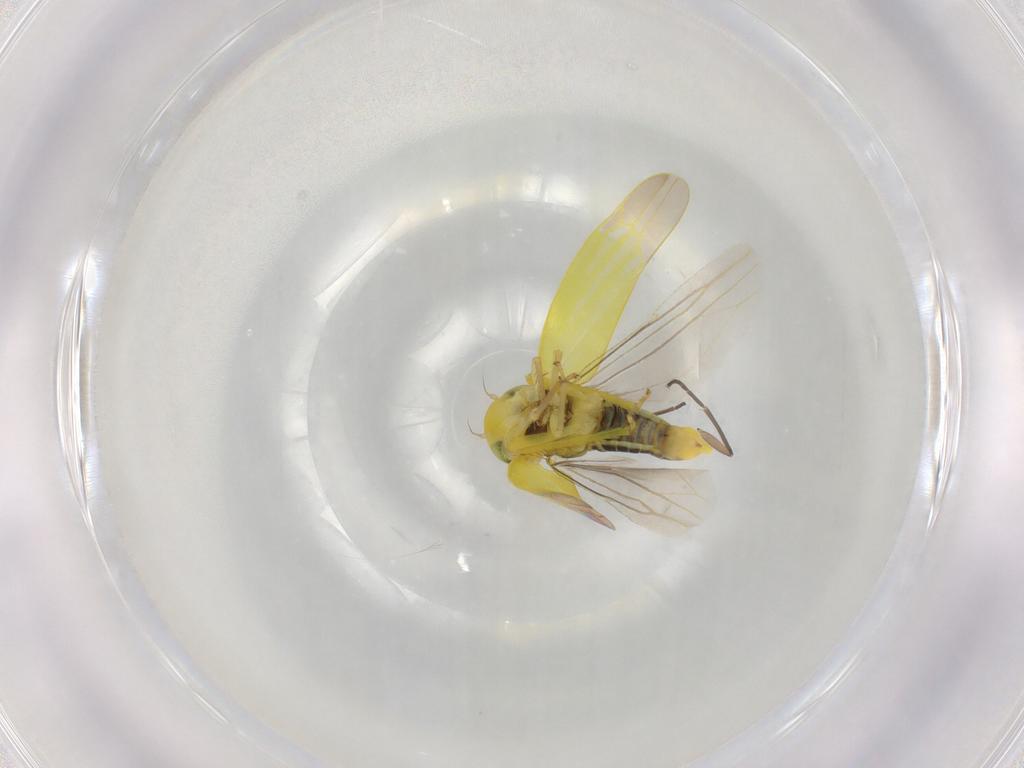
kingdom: Animalia
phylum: Arthropoda
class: Insecta
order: Hemiptera
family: Cicadellidae
